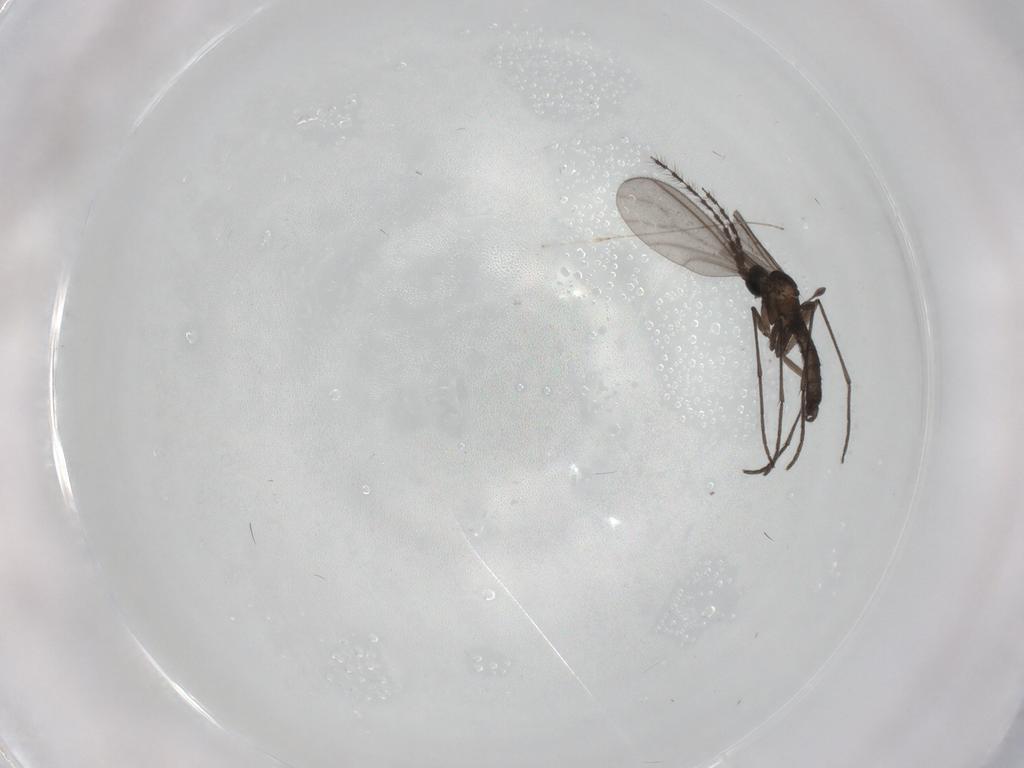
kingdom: Animalia
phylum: Arthropoda
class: Insecta
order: Diptera
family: Sciaridae
